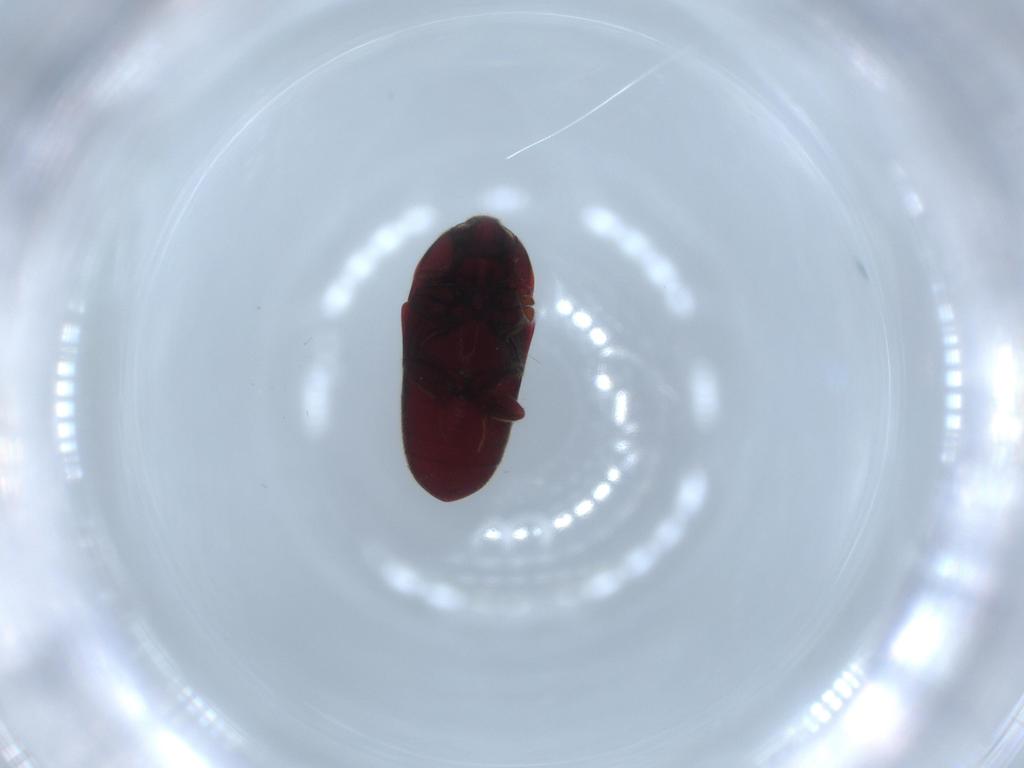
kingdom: Animalia
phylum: Arthropoda
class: Insecta
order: Coleoptera
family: Throscidae
